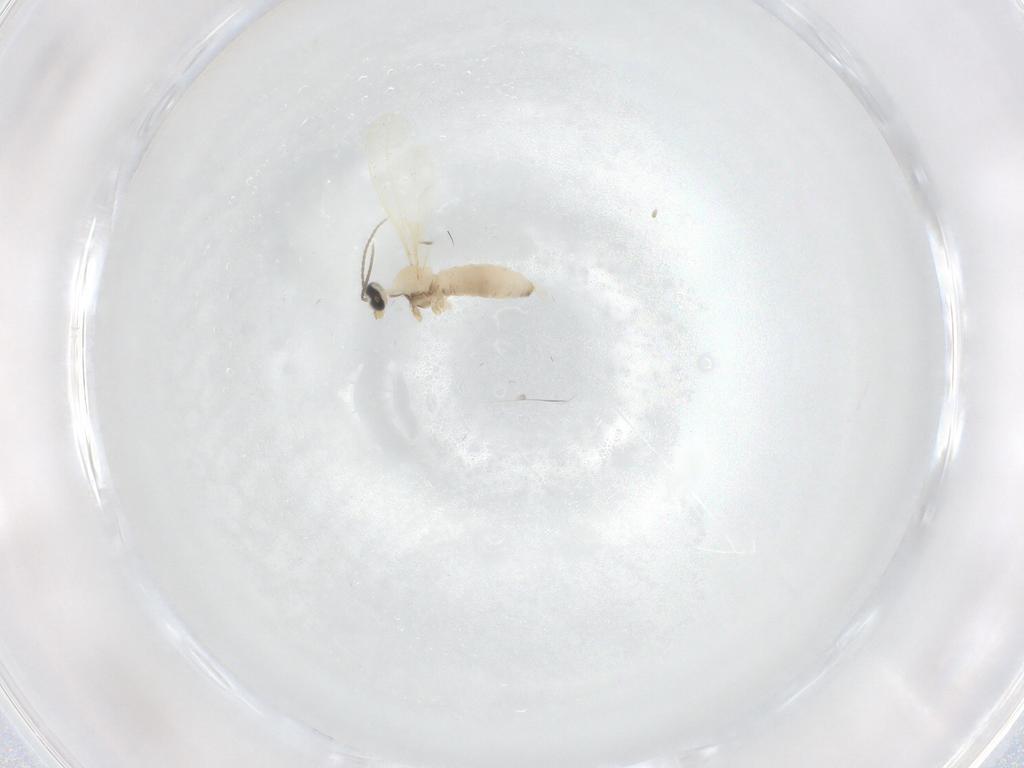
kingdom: Animalia
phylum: Arthropoda
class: Insecta
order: Diptera
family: Cecidomyiidae
